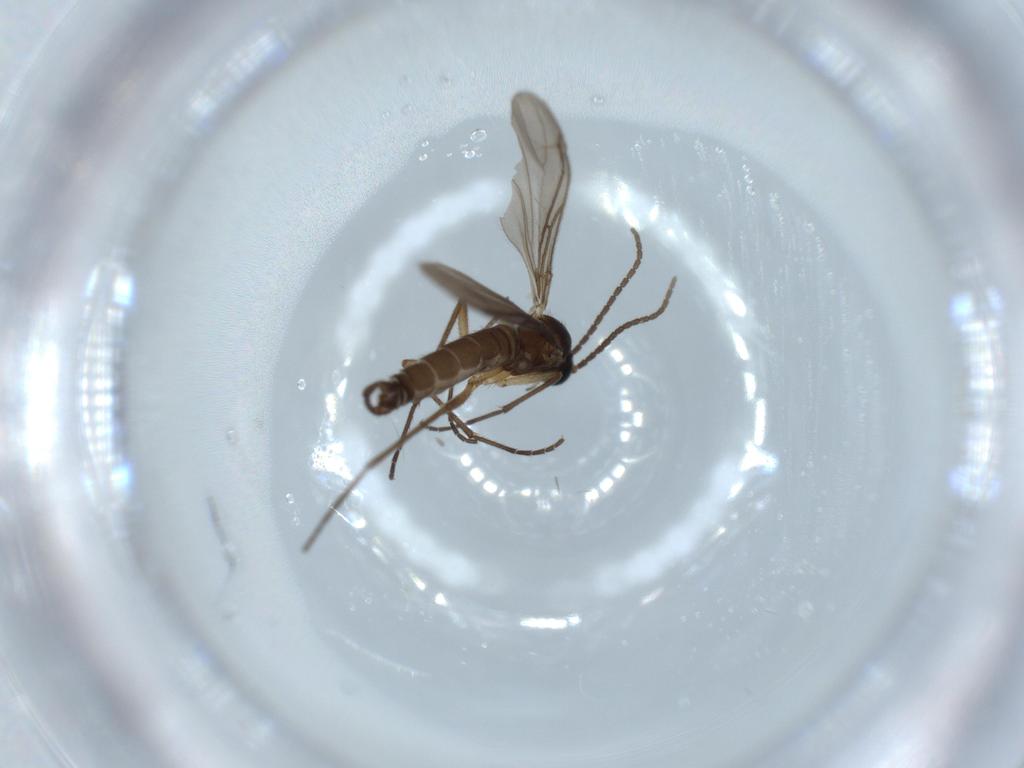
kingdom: Animalia
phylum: Arthropoda
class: Insecta
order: Diptera
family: Sciaridae
